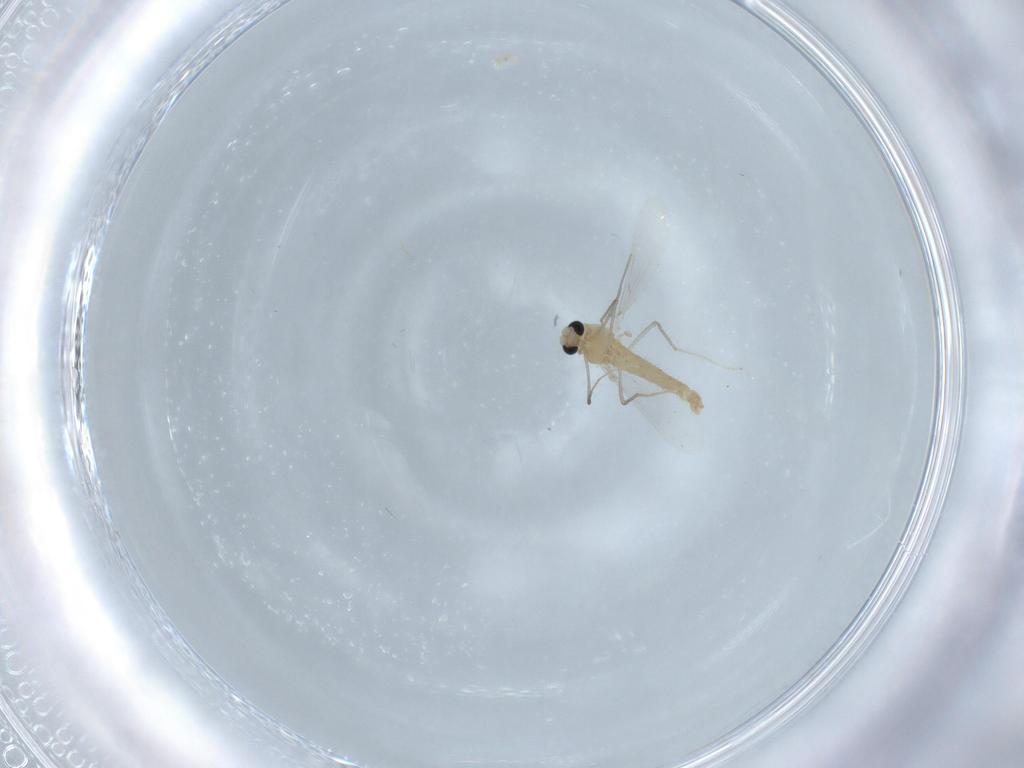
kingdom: Animalia
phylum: Arthropoda
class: Insecta
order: Diptera
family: Chironomidae
